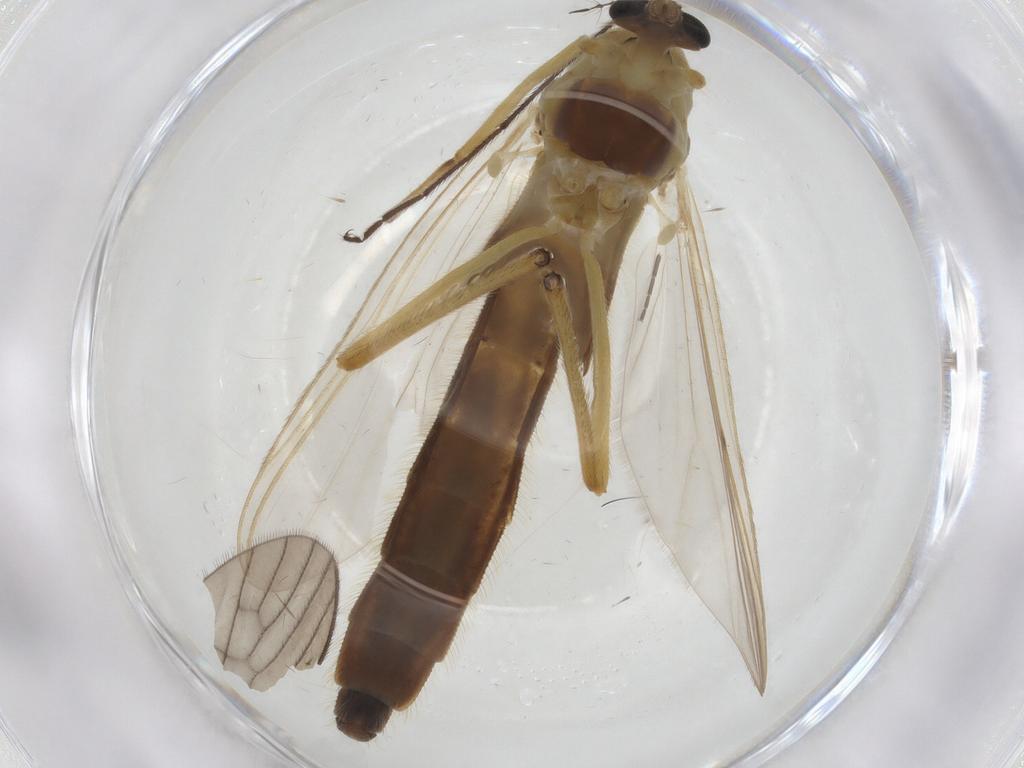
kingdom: Animalia
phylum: Arthropoda
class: Insecta
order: Diptera
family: Chironomidae
